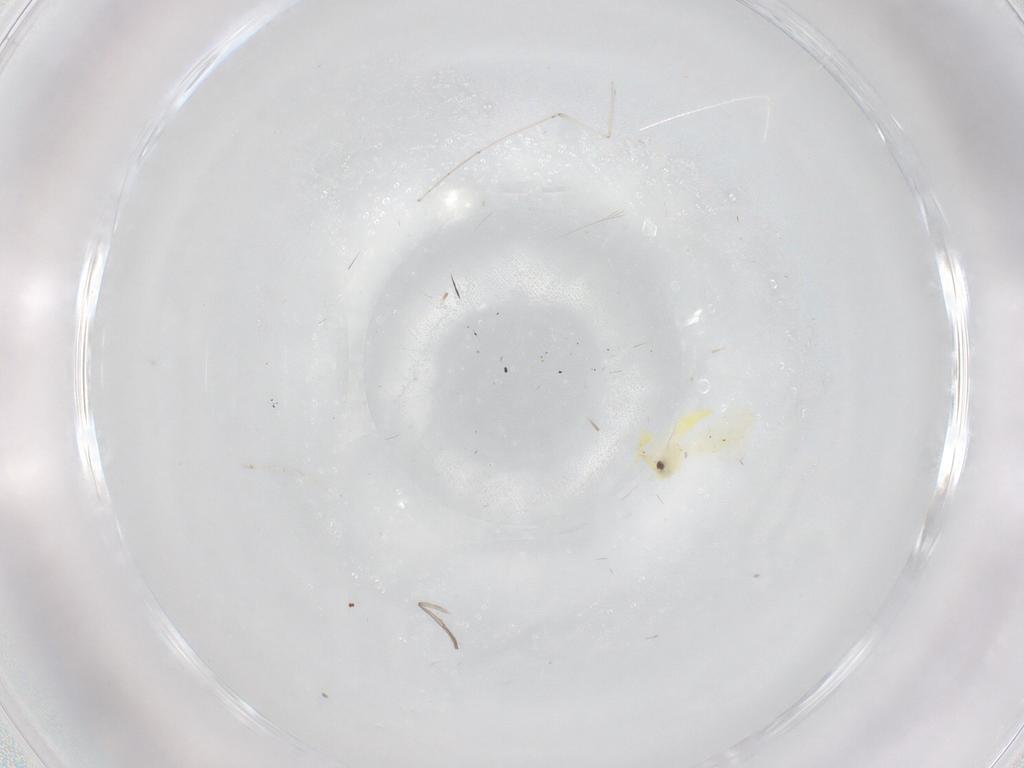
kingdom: Animalia
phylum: Arthropoda
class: Insecta
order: Hemiptera
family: Aleyrodidae
